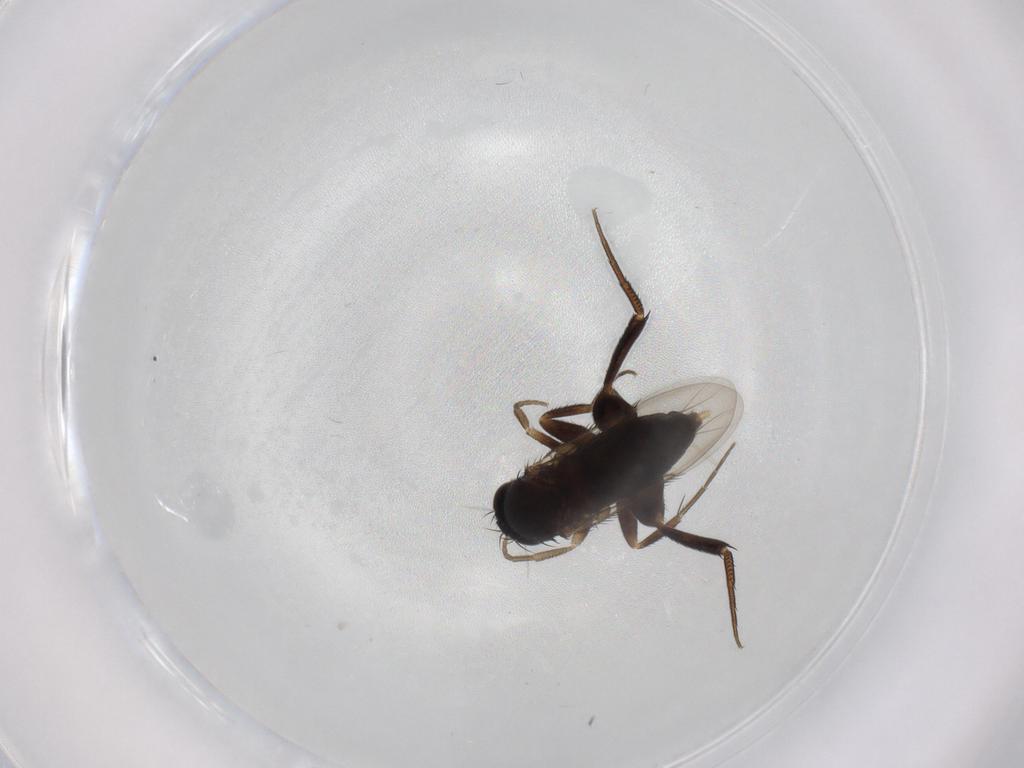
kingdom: Animalia
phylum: Arthropoda
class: Insecta
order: Diptera
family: Phoridae
